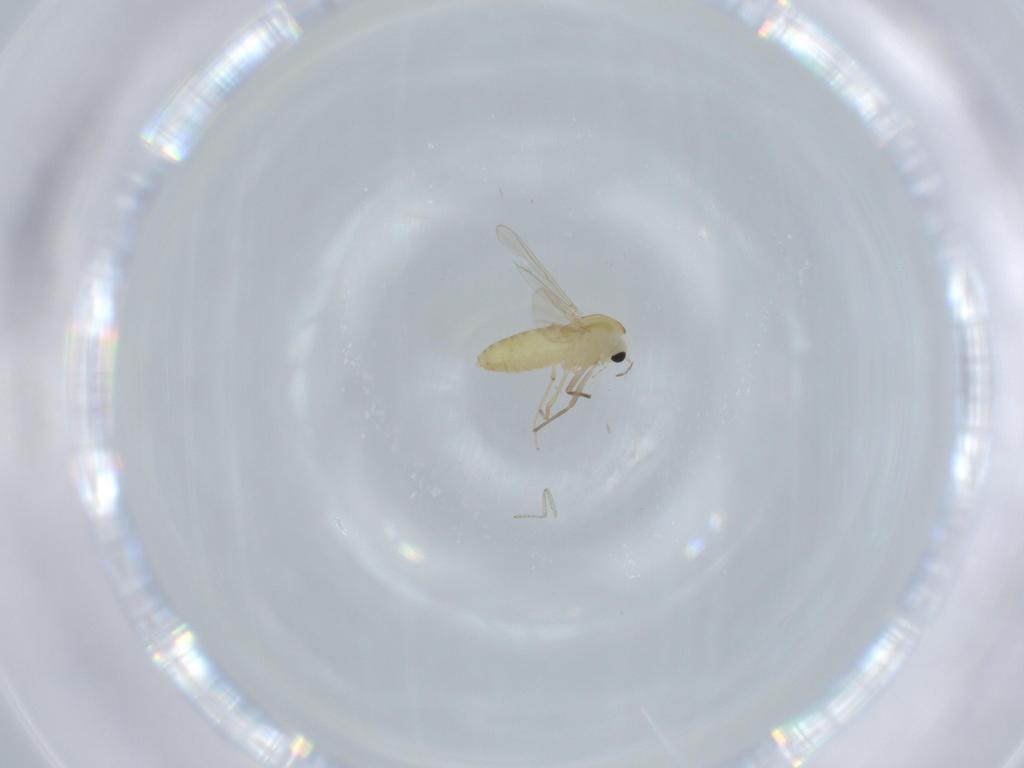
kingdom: Animalia
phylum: Arthropoda
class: Insecta
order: Diptera
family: Chironomidae
